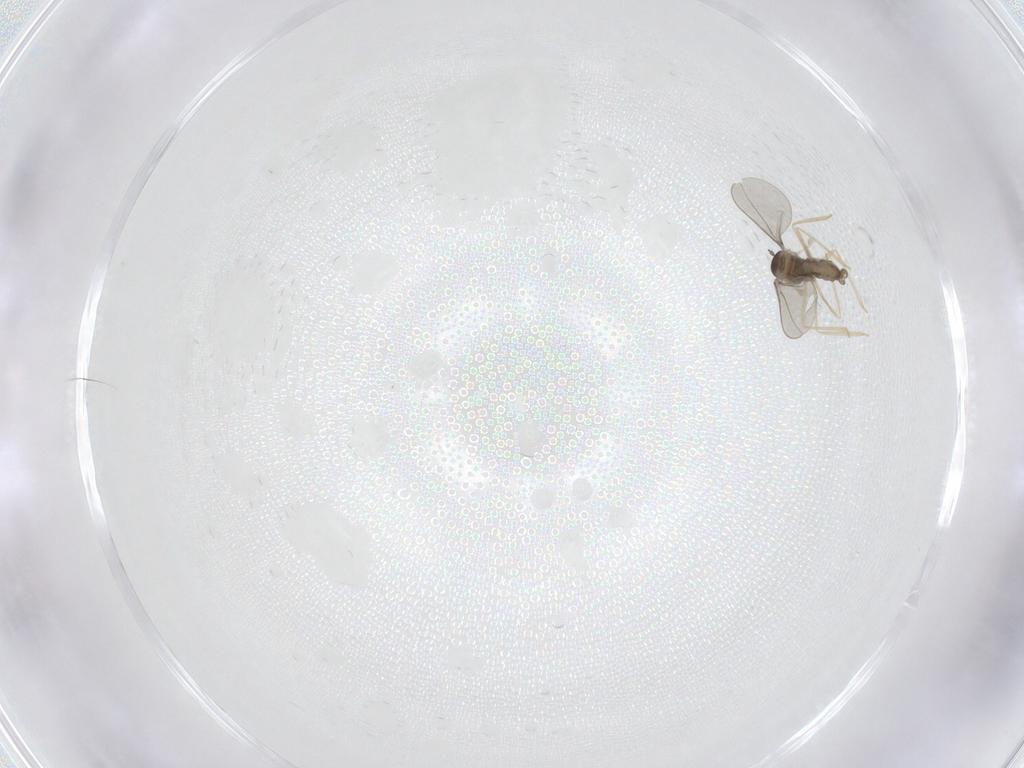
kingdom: Animalia
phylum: Arthropoda
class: Insecta
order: Diptera
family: Ceratopogonidae
